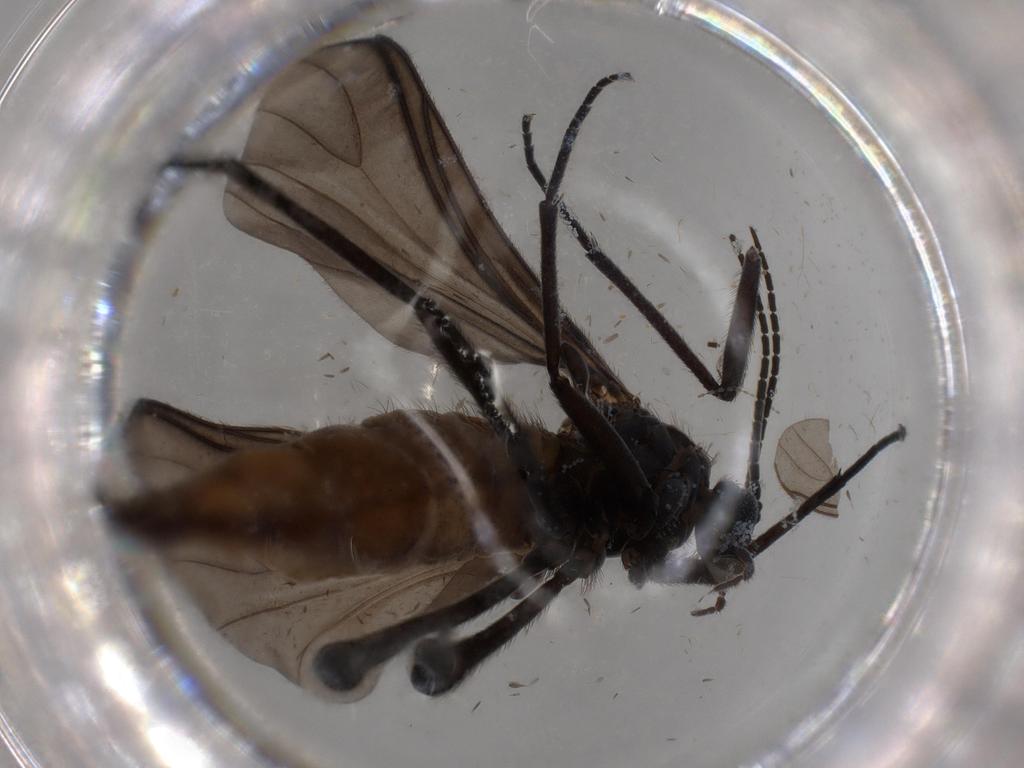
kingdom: Animalia
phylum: Arthropoda
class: Insecta
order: Diptera
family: Sciaridae
